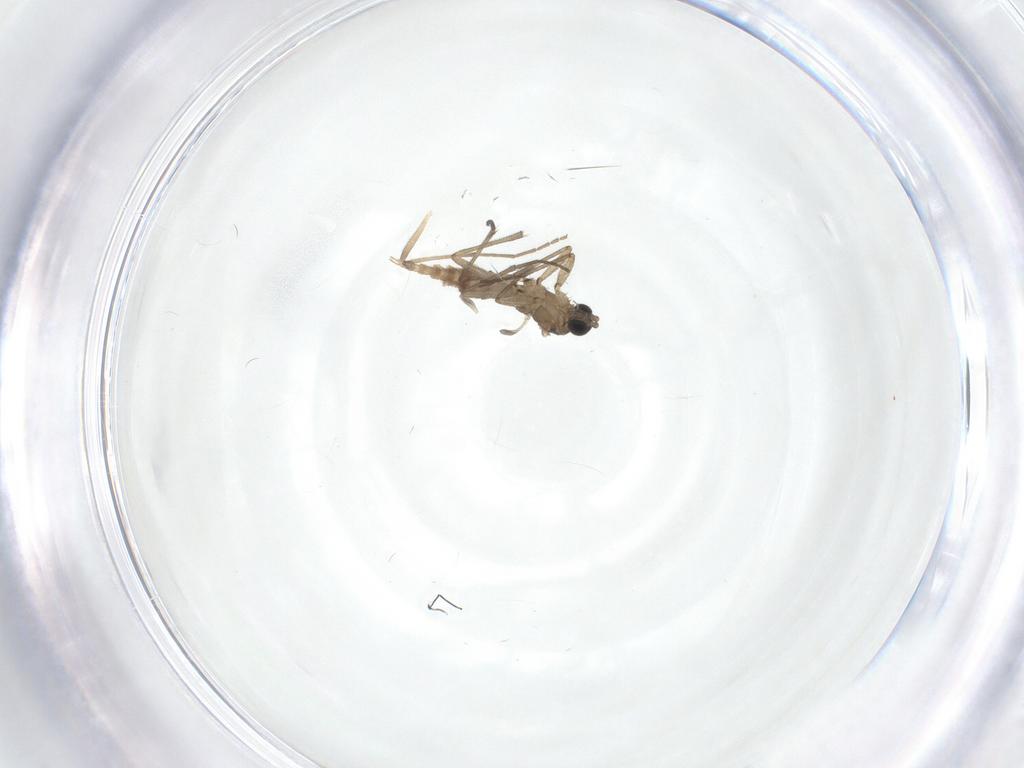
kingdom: Animalia
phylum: Arthropoda
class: Insecta
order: Diptera
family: Sciaridae
